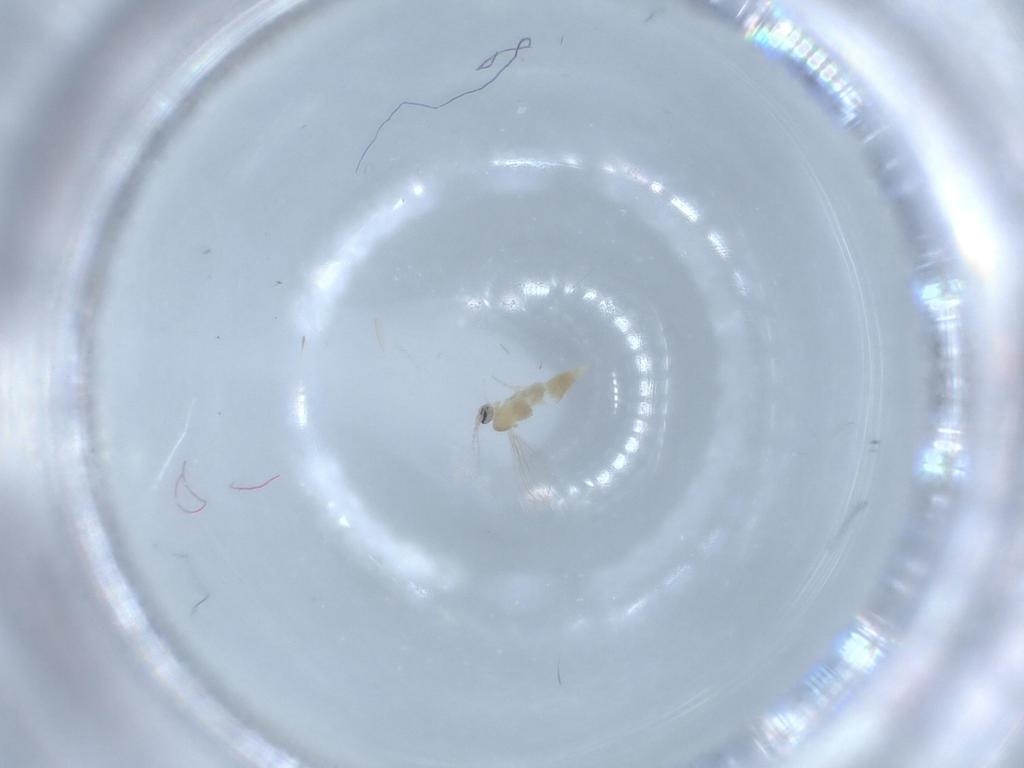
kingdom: Animalia
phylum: Arthropoda
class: Insecta
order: Diptera
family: Cecidomyiidae
